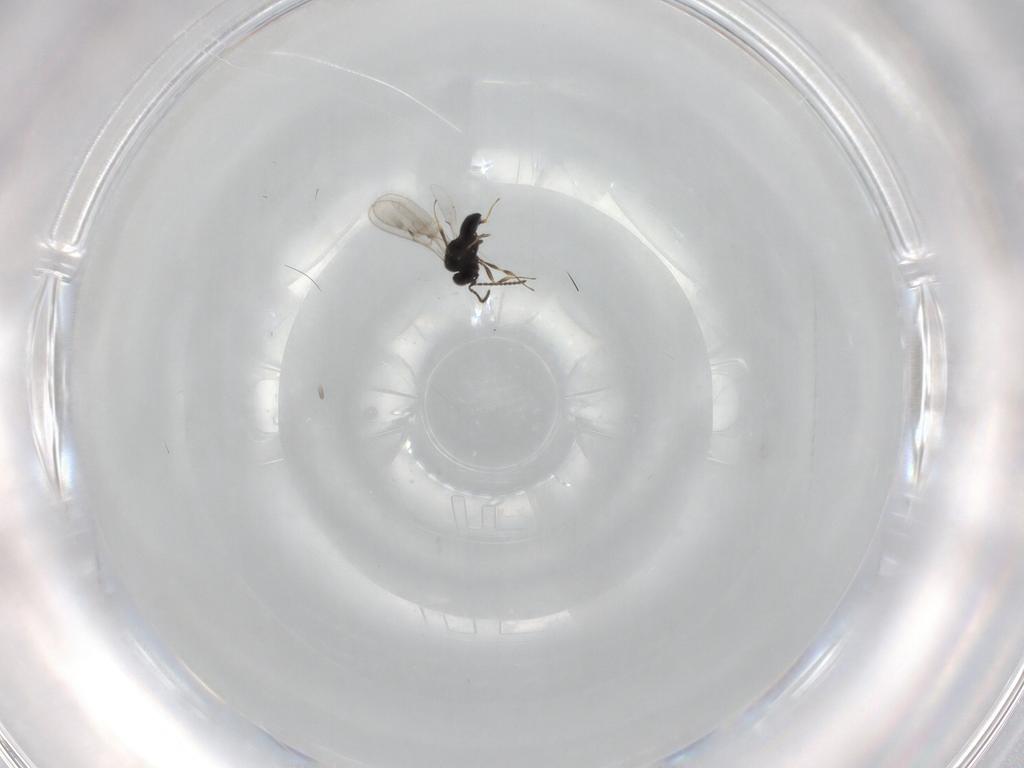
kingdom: Animalia
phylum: Arthropoda
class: Insecta
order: Hymenoptera
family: Scelionidae
